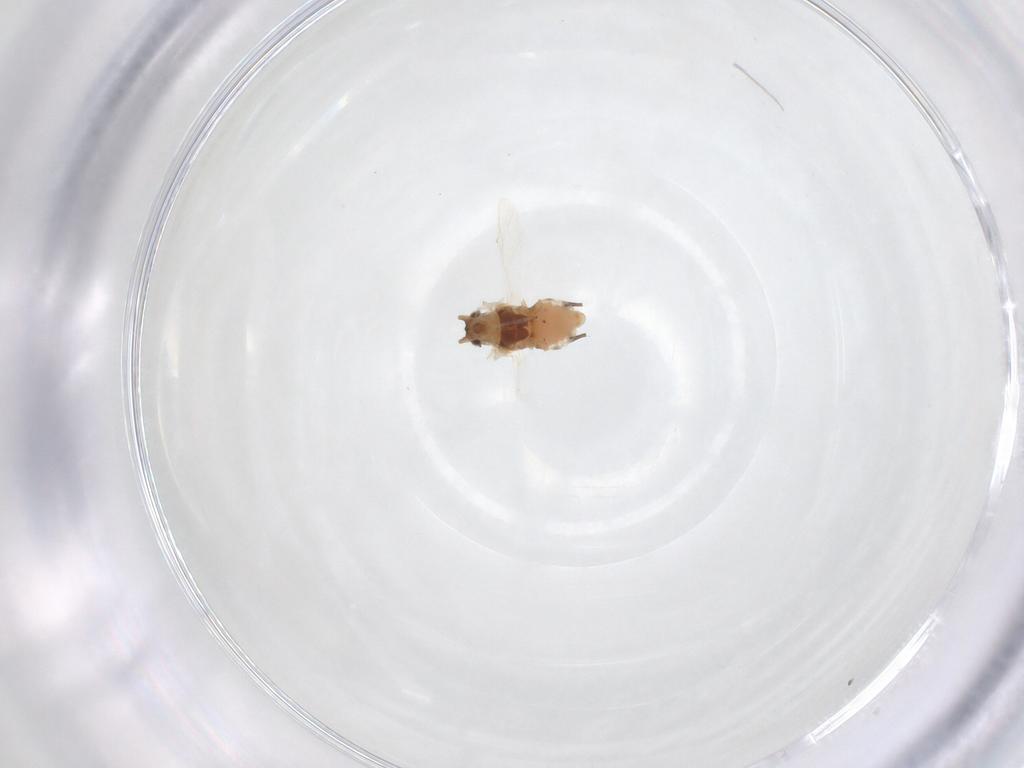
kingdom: Animalia
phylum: Arthropoda
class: Insecta
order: Hemiptera
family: Aphididae
